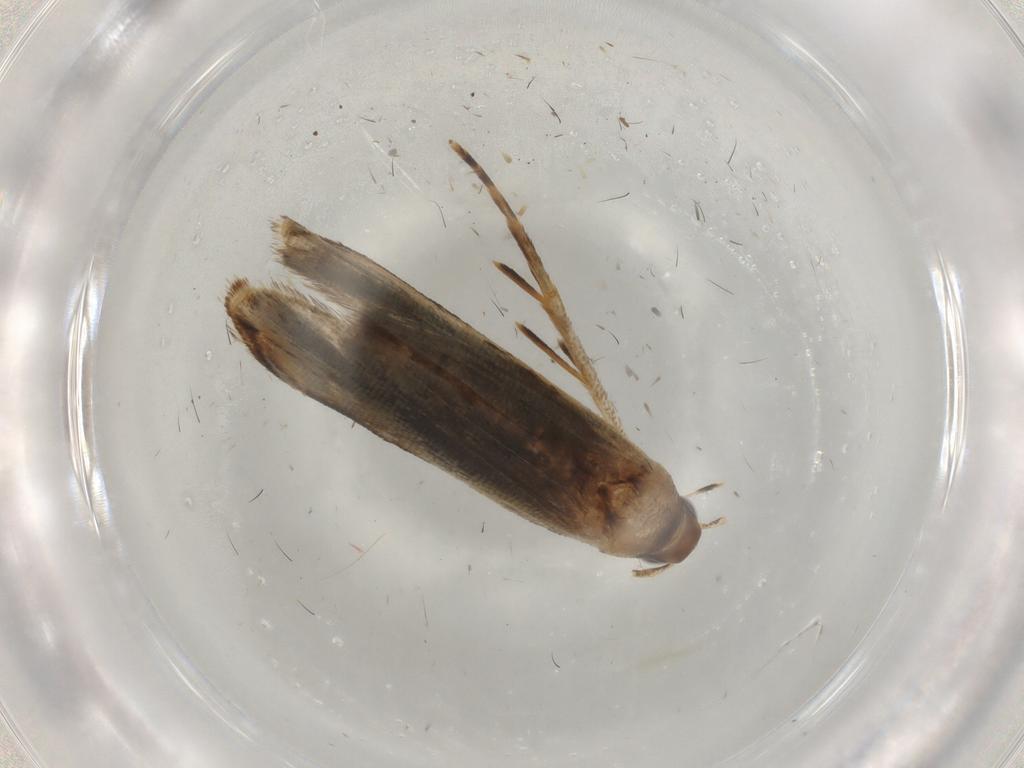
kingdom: Animalia
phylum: Arthropoda
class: Insecta
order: Lepidoptera
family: Gelechiidae
